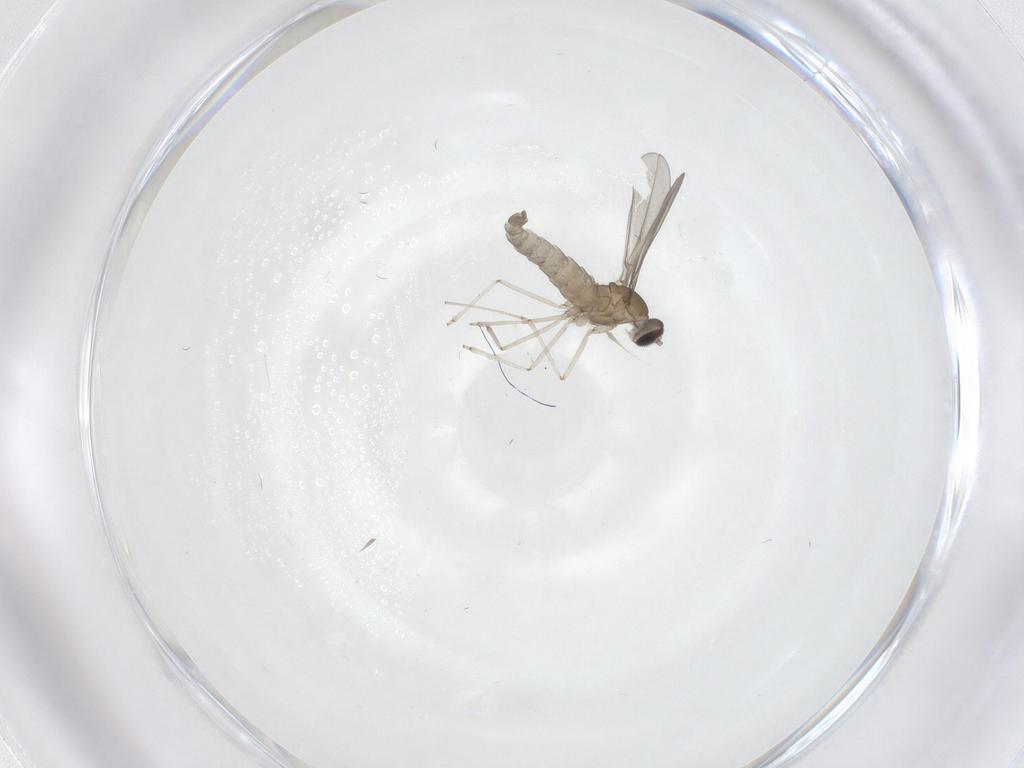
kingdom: Animalia
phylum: Arthropoda
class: Insecta
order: Diptera
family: Cecidomyiidae
